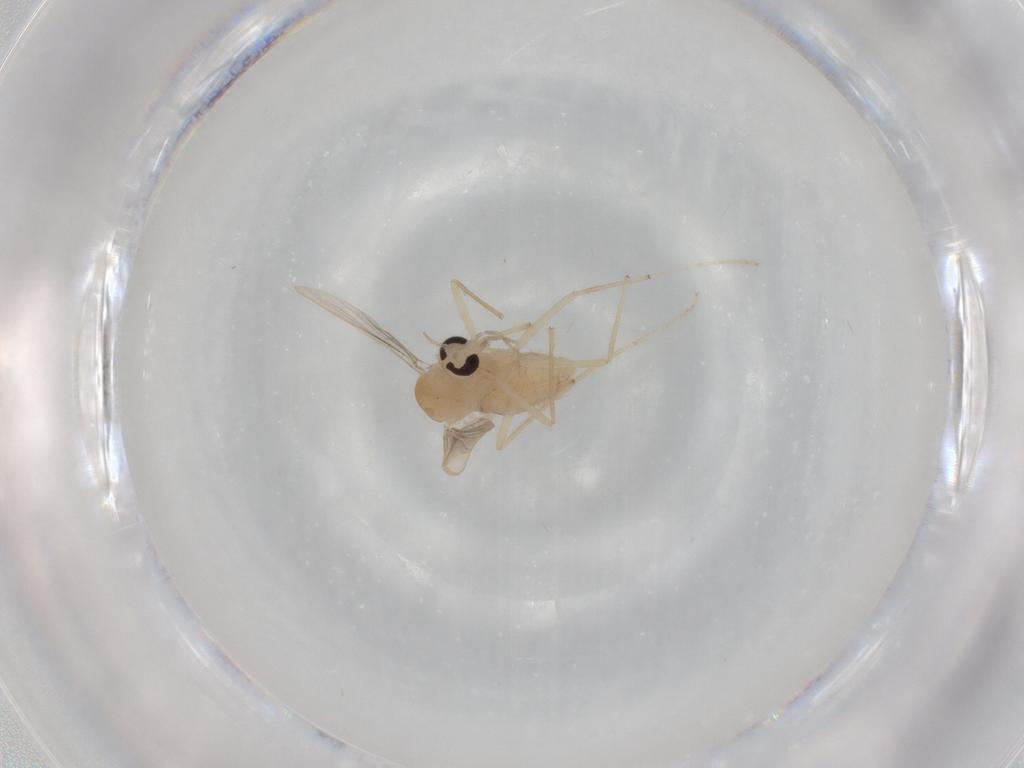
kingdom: Animalia
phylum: Arthropoda
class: Insecta
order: Diptera
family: Chironomidae
